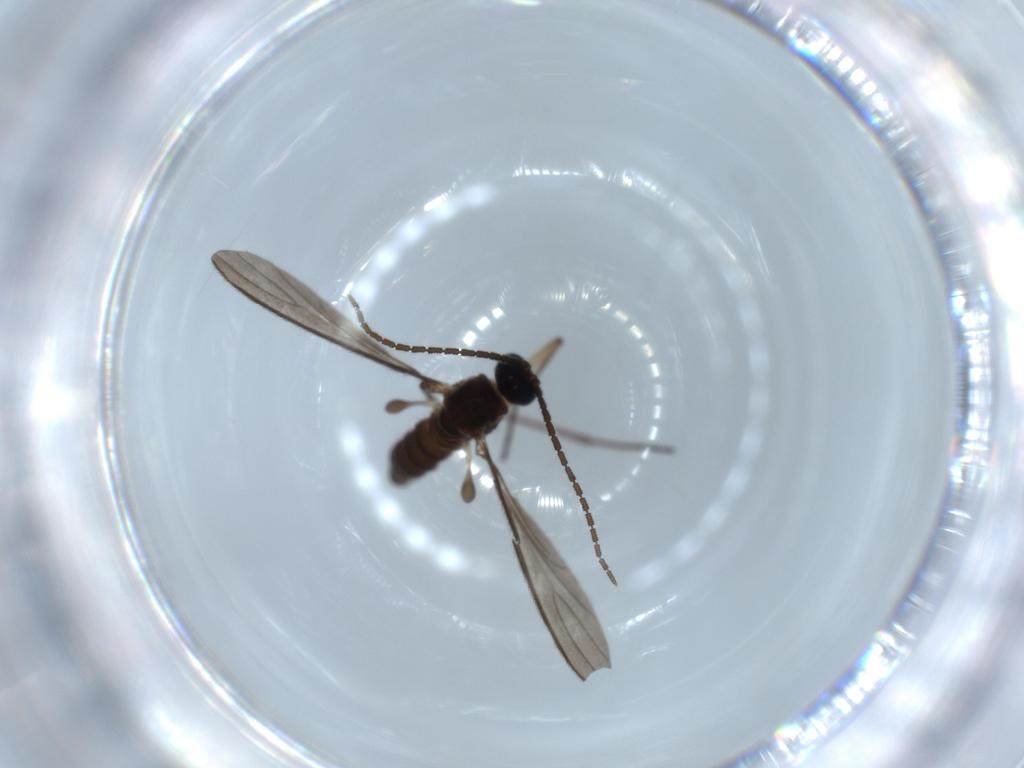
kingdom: Animalia
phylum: Arthropoda
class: Insecta
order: Diptera
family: Sciaridae
